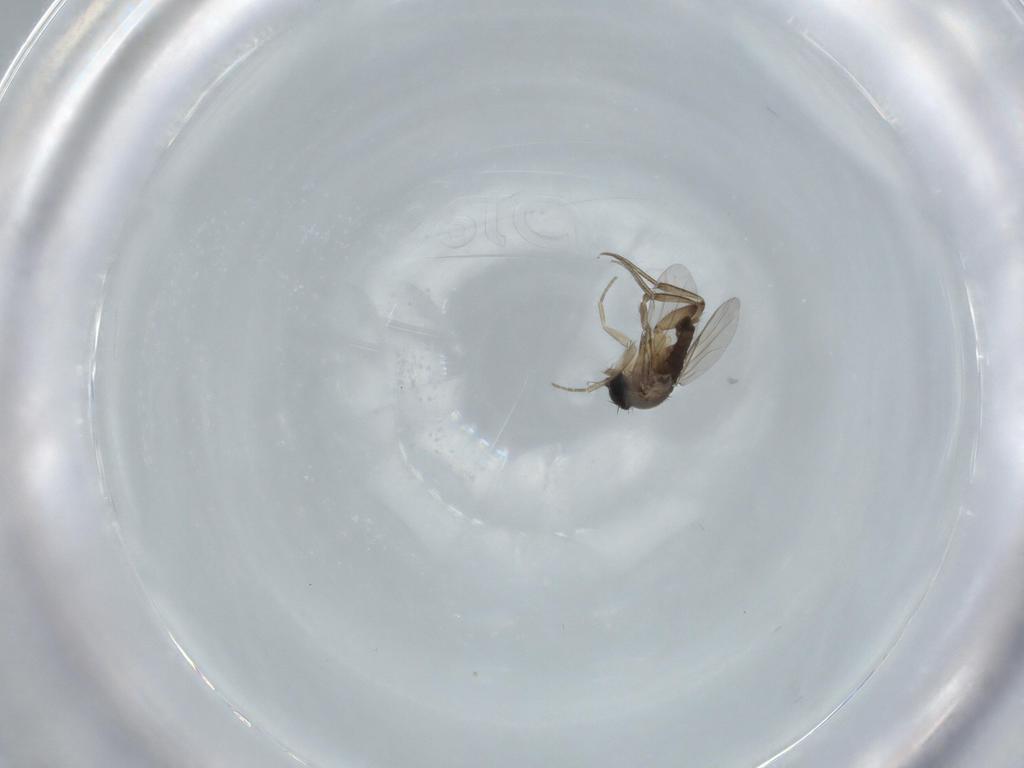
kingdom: Animalia
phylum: Arthropoda
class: Insecta
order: Diptera
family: Phoridae
